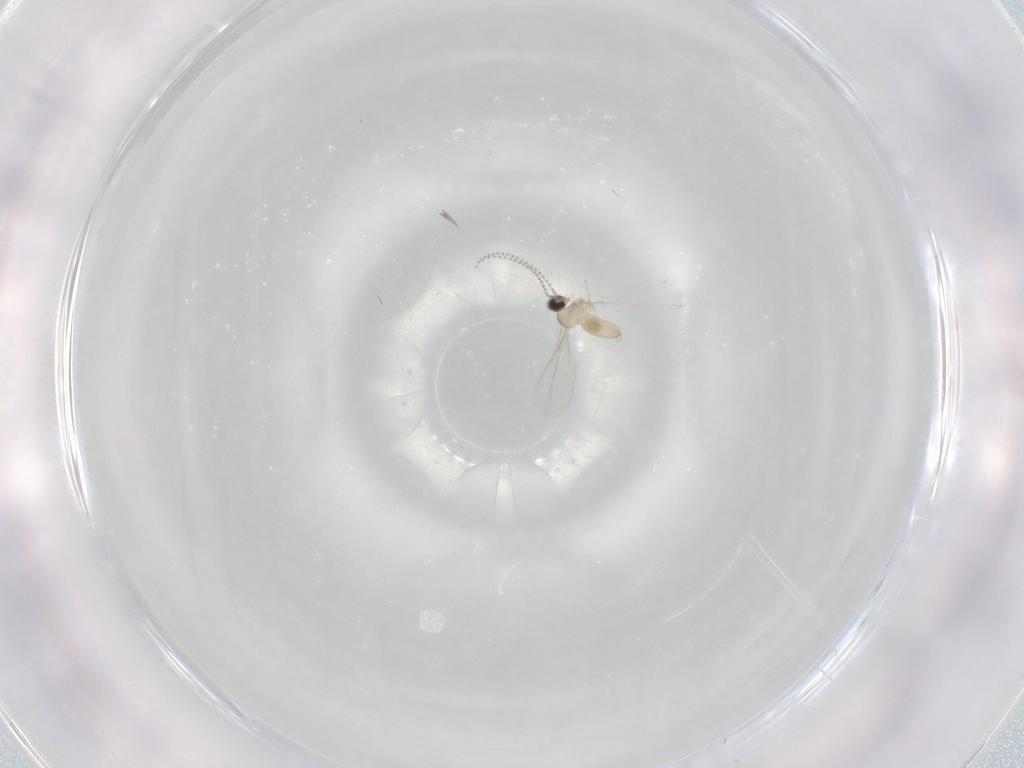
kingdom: Animalia
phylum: Arthropoda
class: Insecta
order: Diptera
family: Cecidomyiidae
